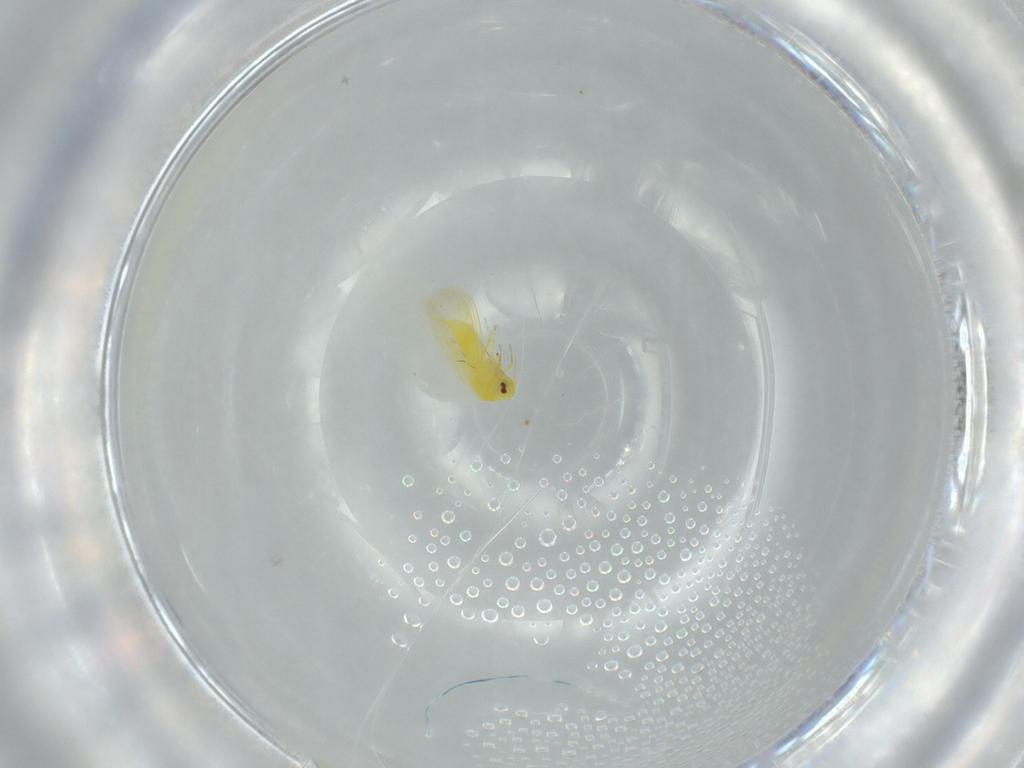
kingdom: Animalia
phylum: Arthropoda
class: Insecta
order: Hemiptera
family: Aleyrodidae
